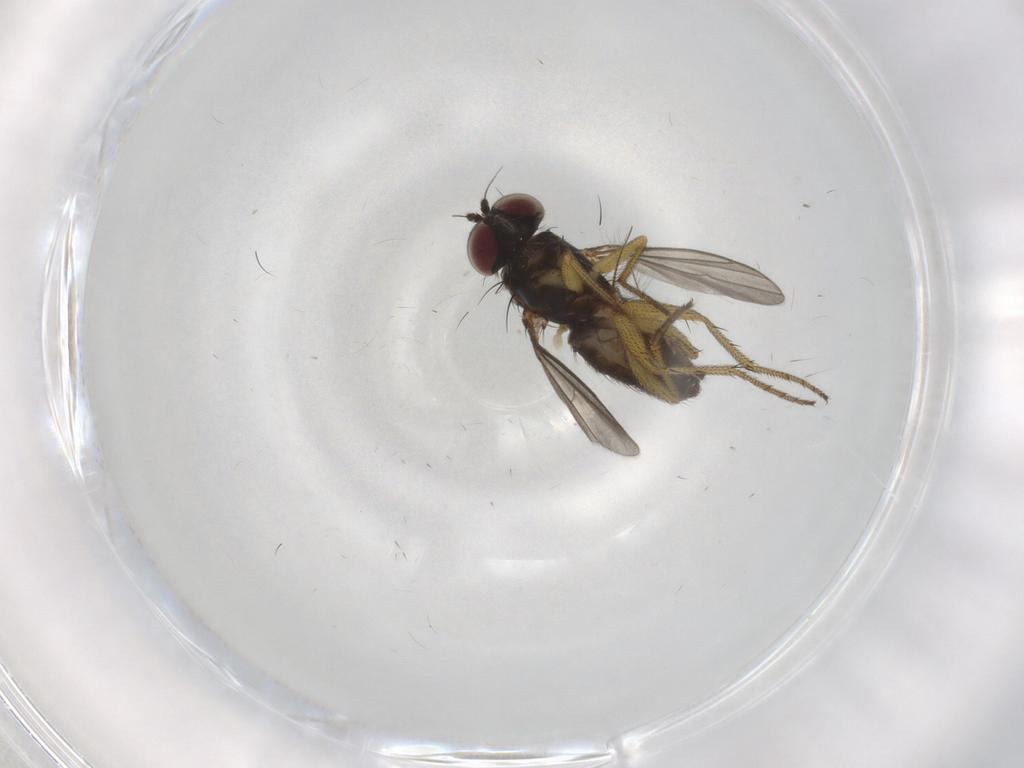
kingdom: Animalia
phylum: Arthropoda
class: Insecta
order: Diptera
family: Dolichopodidae
